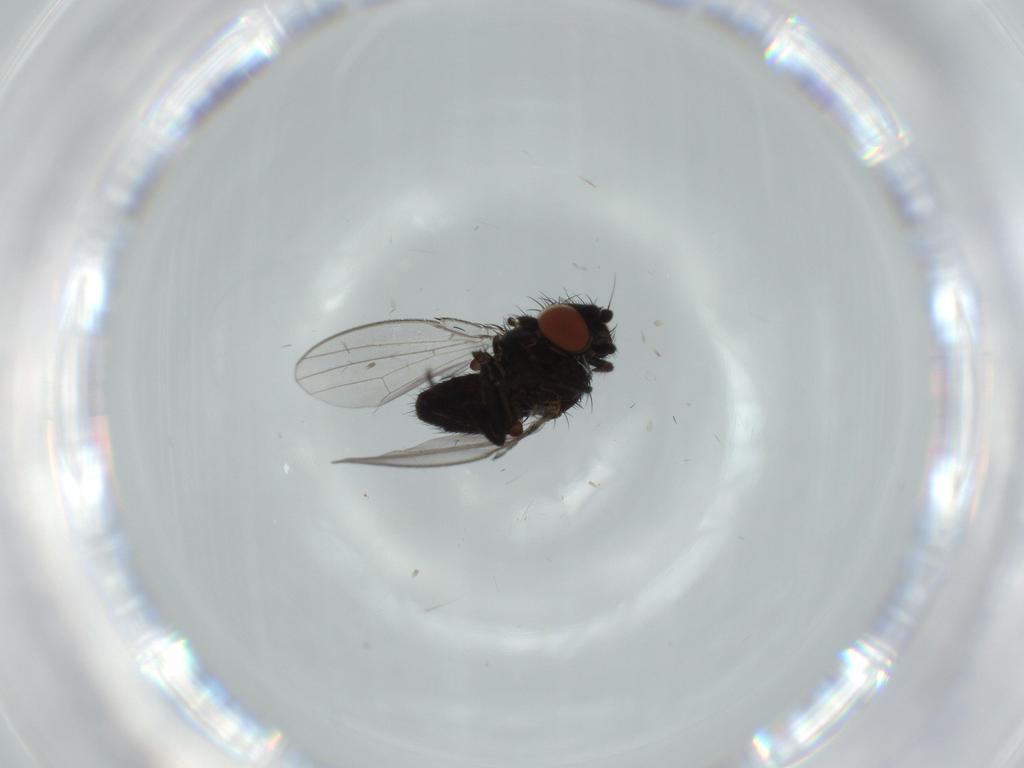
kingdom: Animalia
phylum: Arthropoda
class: Insecta
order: Diptera
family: Milichiidae
